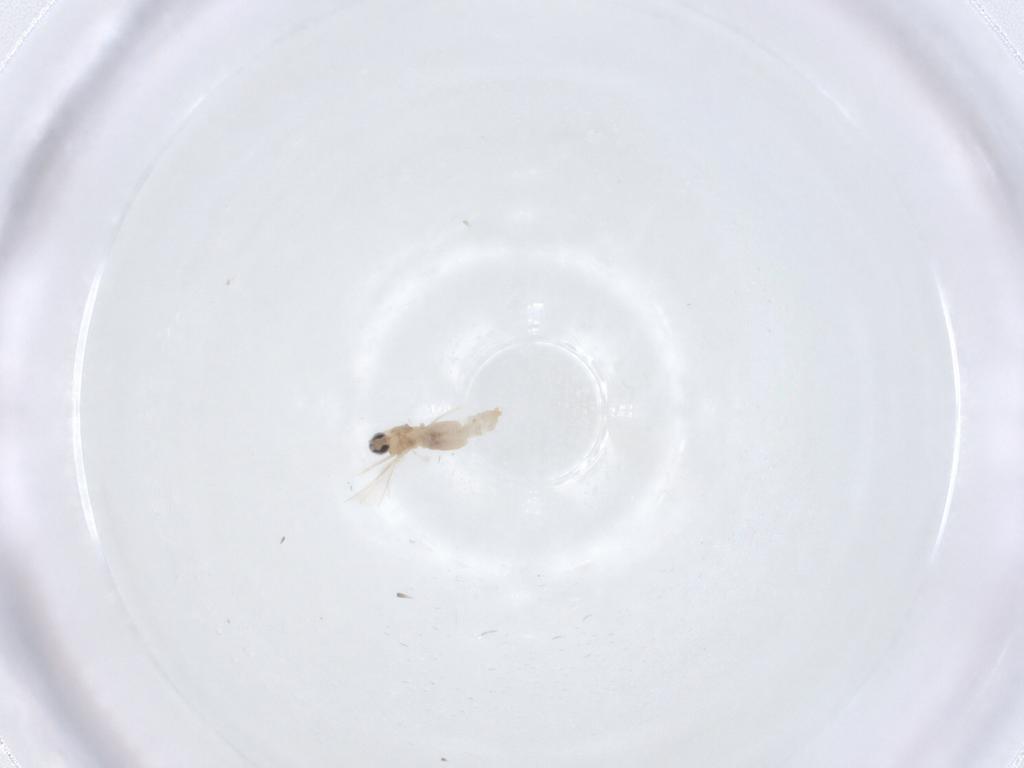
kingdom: Animalia
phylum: Arthropoda
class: Insecta
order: Diptera
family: Cecidomyiidae
